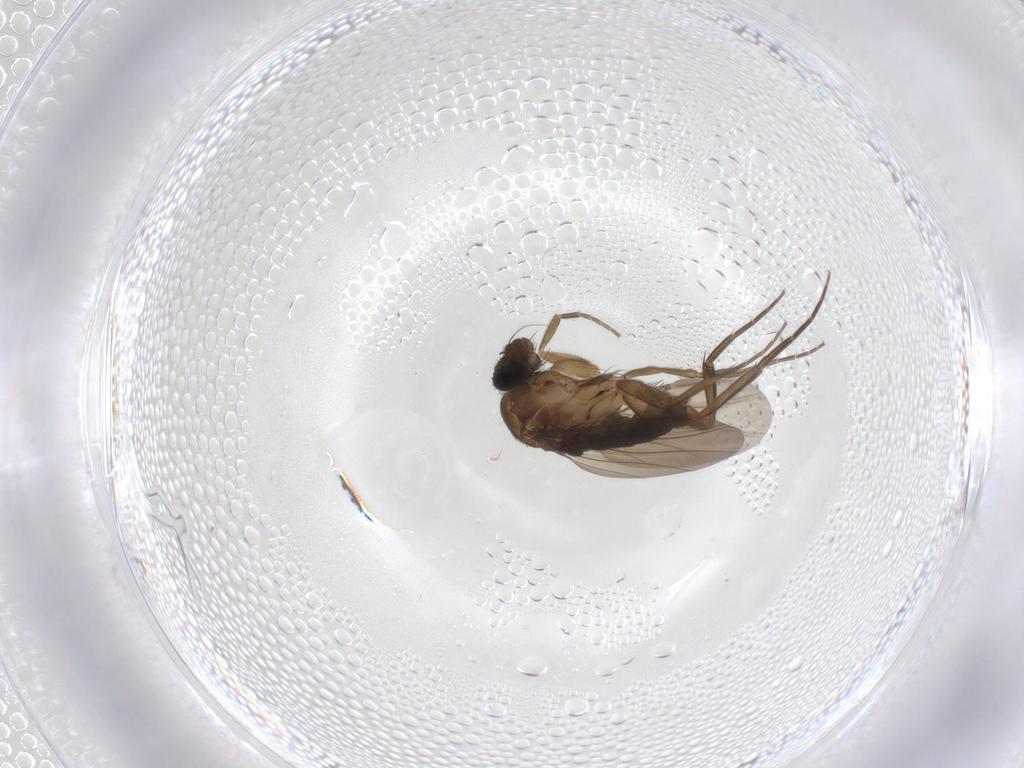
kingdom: Animalia
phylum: Arthropoda
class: Insecta
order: Diptera
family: Phoridae
